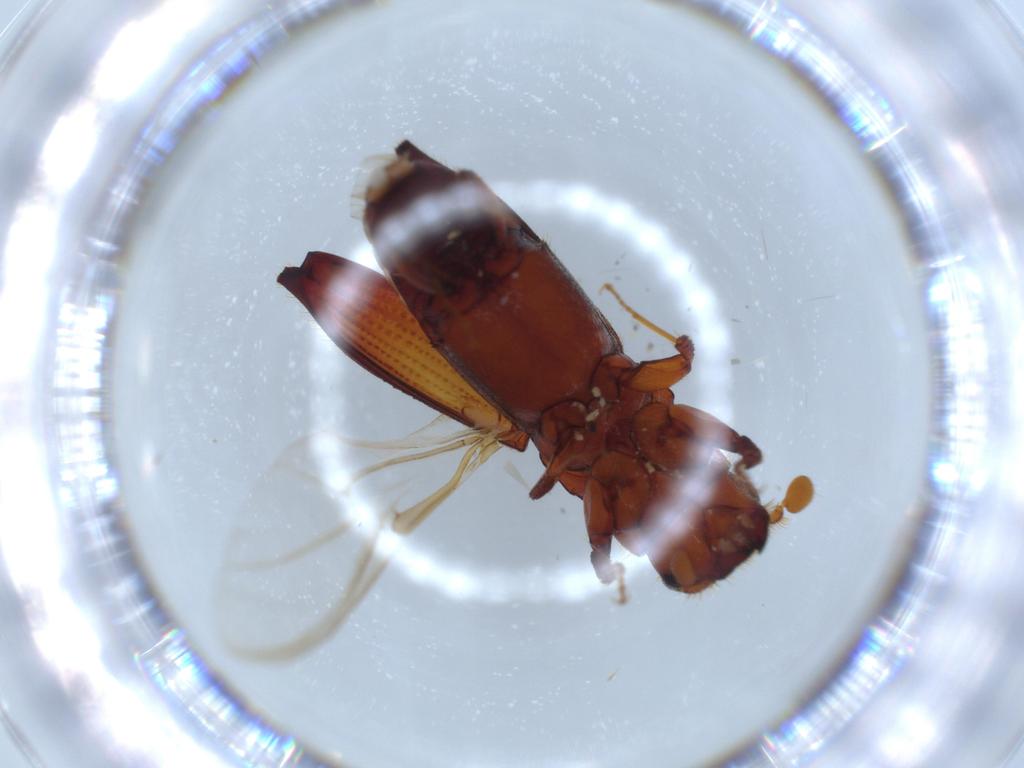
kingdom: Animalia
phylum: Arthropoda
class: Insecta
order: Coleoptera
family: Curculionidae
